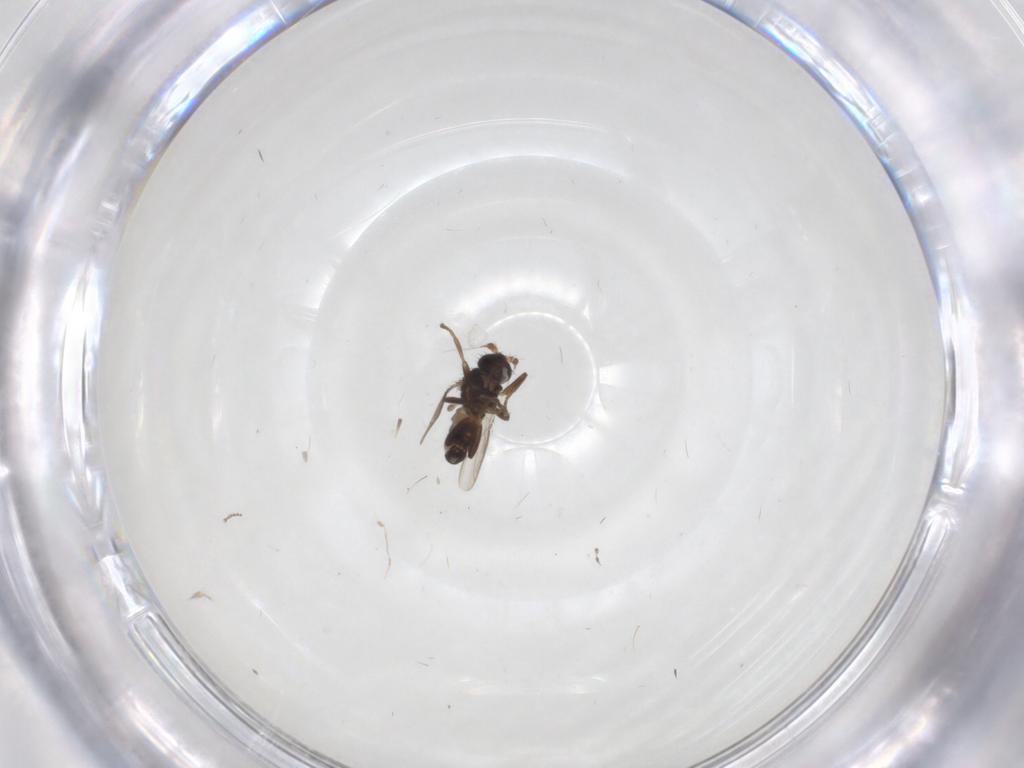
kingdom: Animalia
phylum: Arthropoda
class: Insecta
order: Diptera
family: Sphaeroceridae
